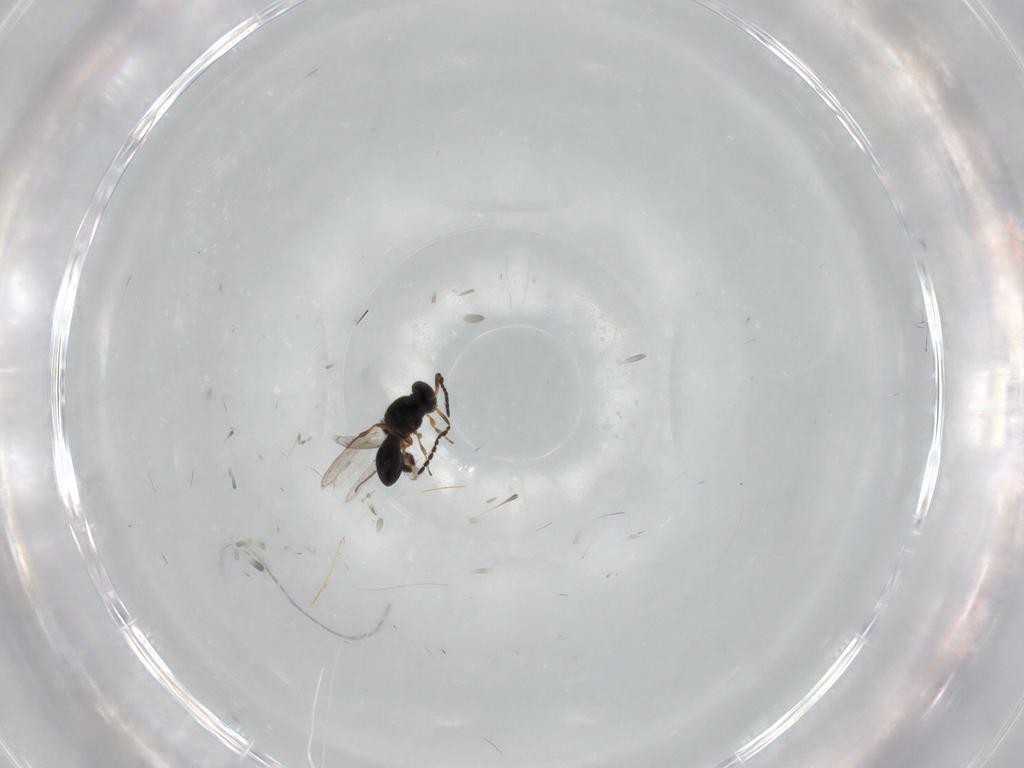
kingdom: Animalia
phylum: Arthropoda
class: Insecta
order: Hymenoptera
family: Platygastridae
